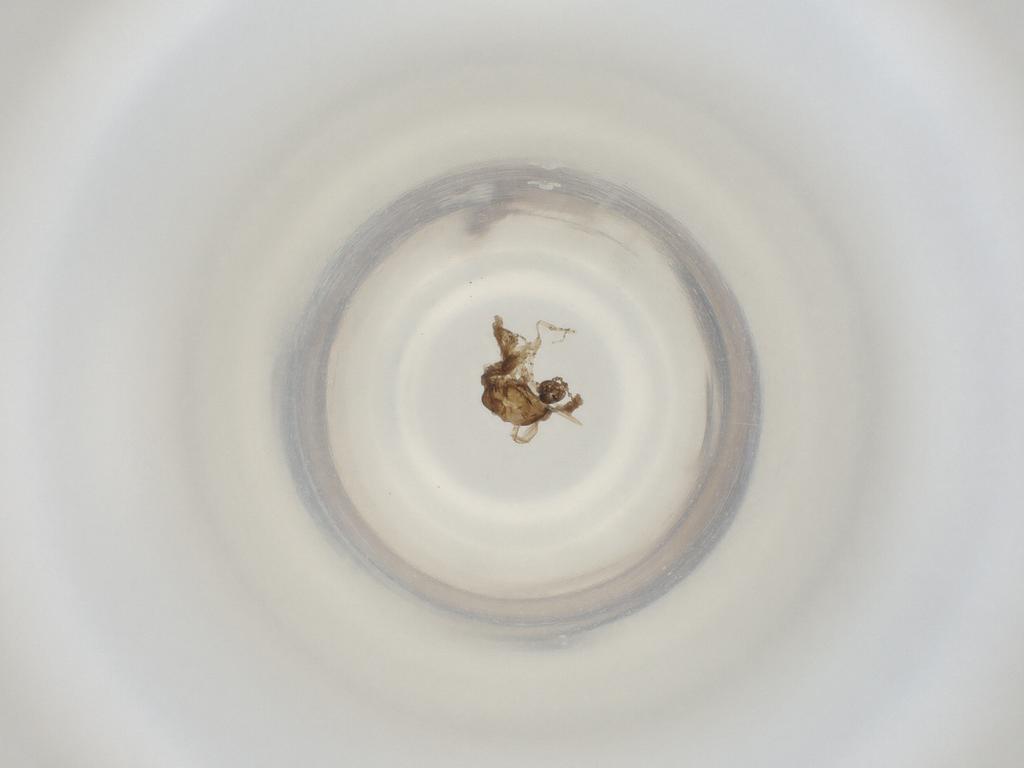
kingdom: Animalia
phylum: Arthropoda
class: Insecta
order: Diptera
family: Cecidomyiidae
